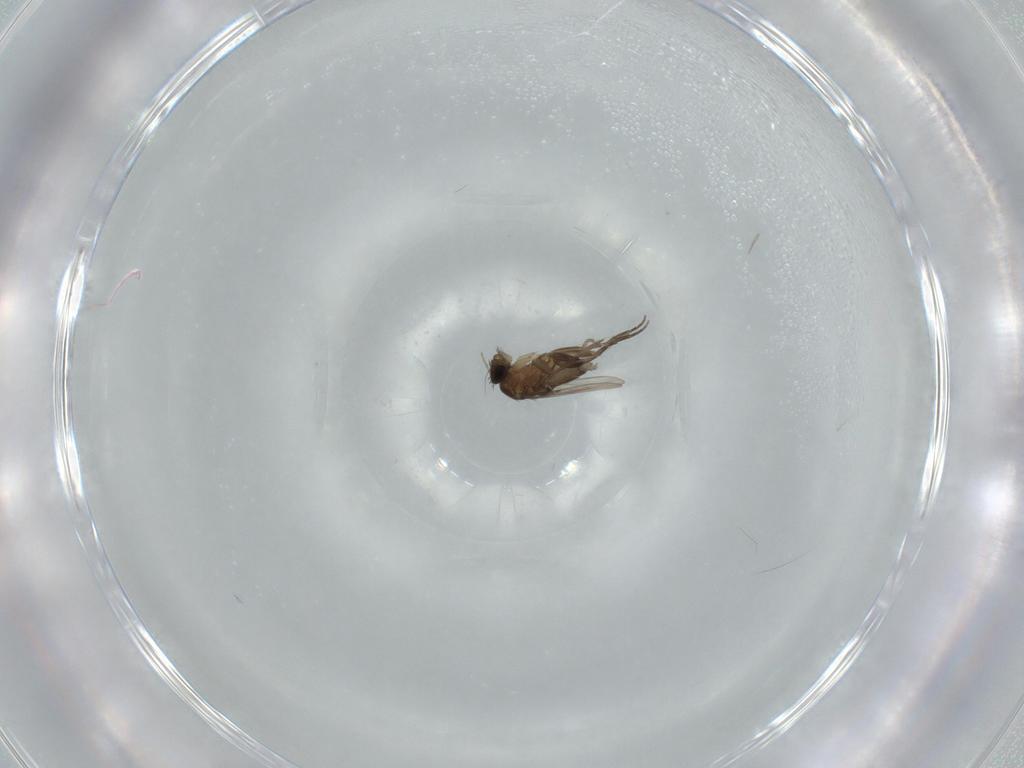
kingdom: Animalia
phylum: Arthropoda
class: Insecta
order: Diptera
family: Phoridae
